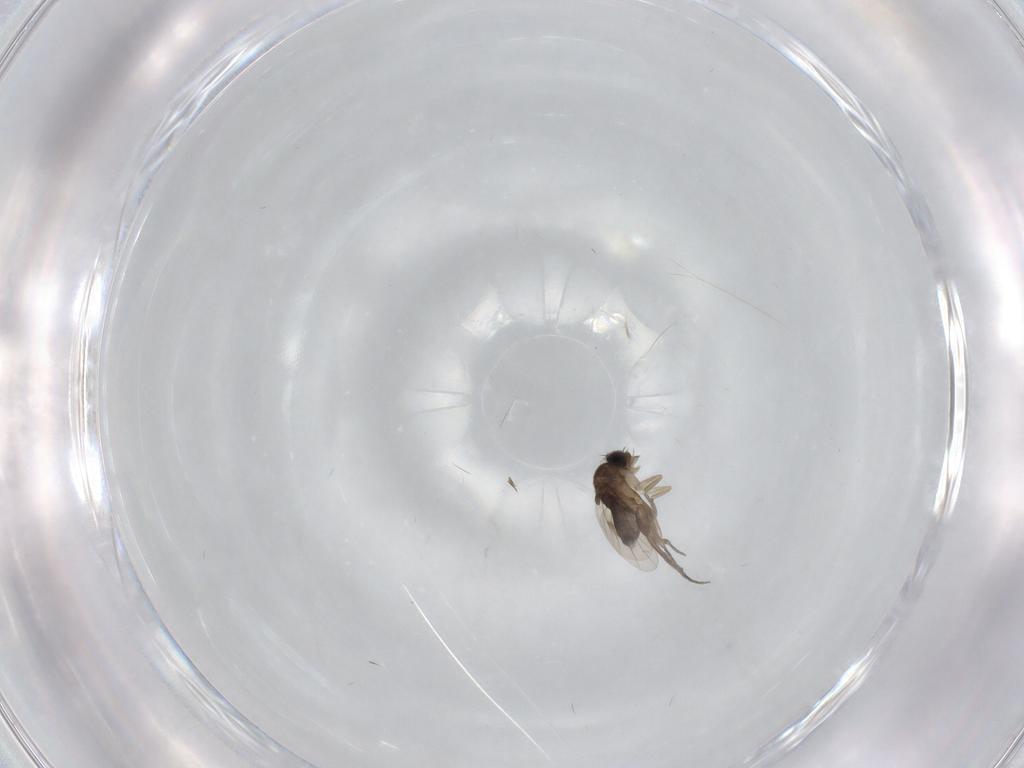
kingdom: Animalia
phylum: Arthropoda
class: Insecta
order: Diptera
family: Phoridae
